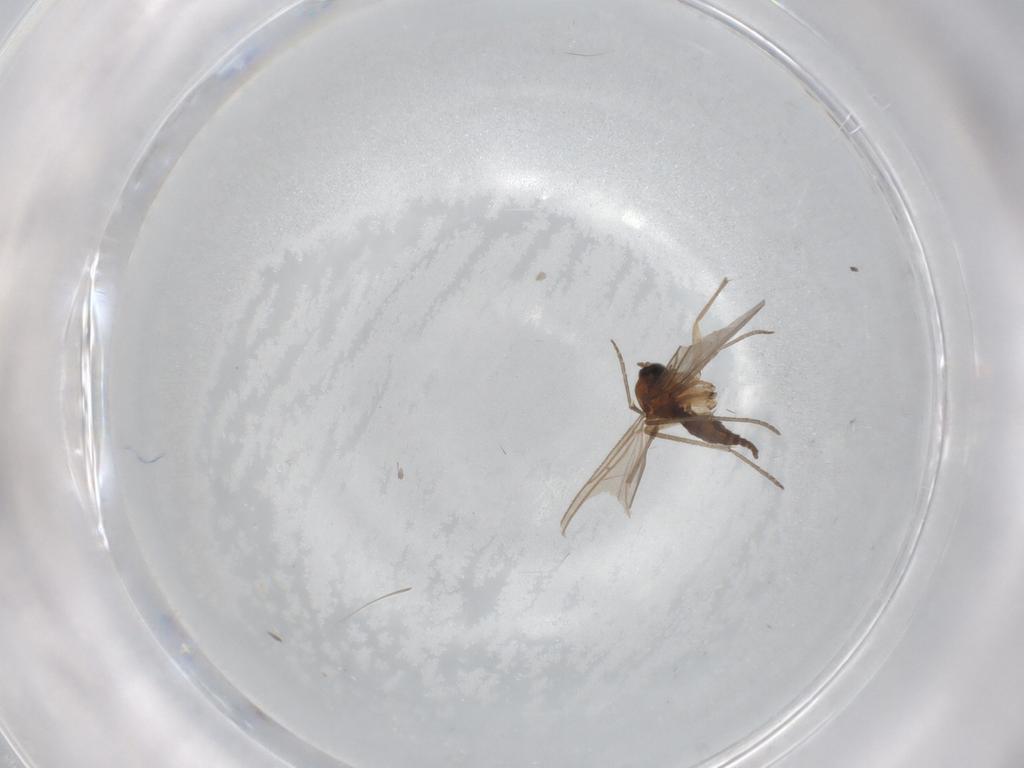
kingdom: Animalia
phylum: Arthropoda
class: Insecta
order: Diptera
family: Sciaridae
